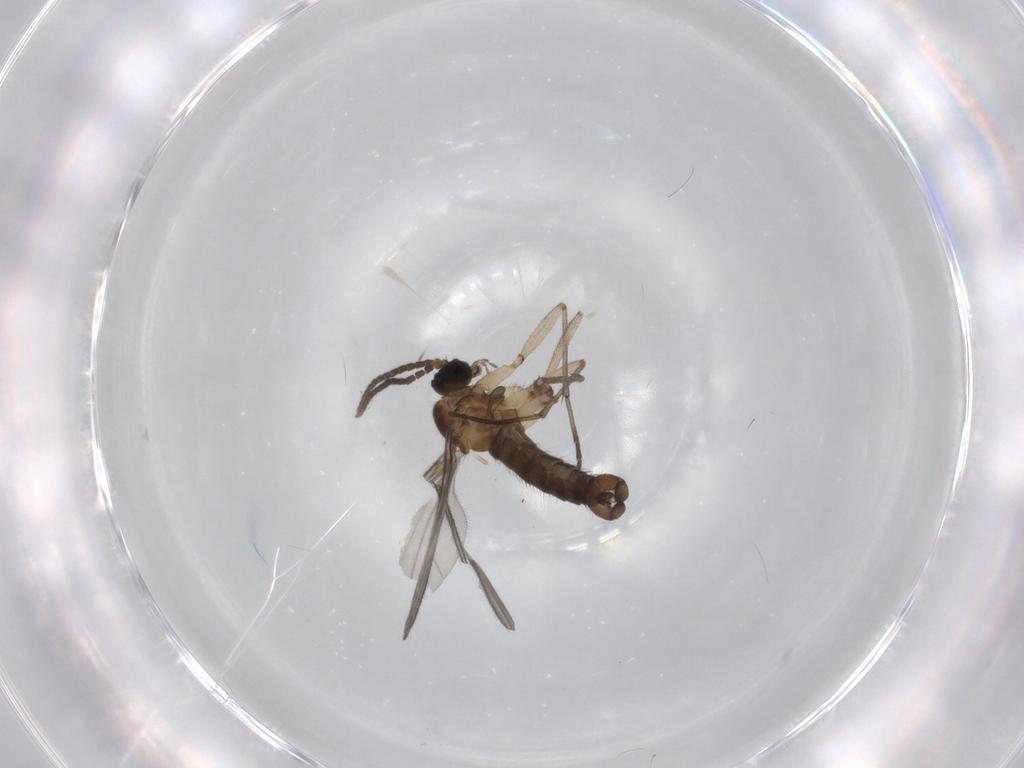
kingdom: Animalia
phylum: Arthropoda
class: Insecta
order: Diptera
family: Sciaridae
